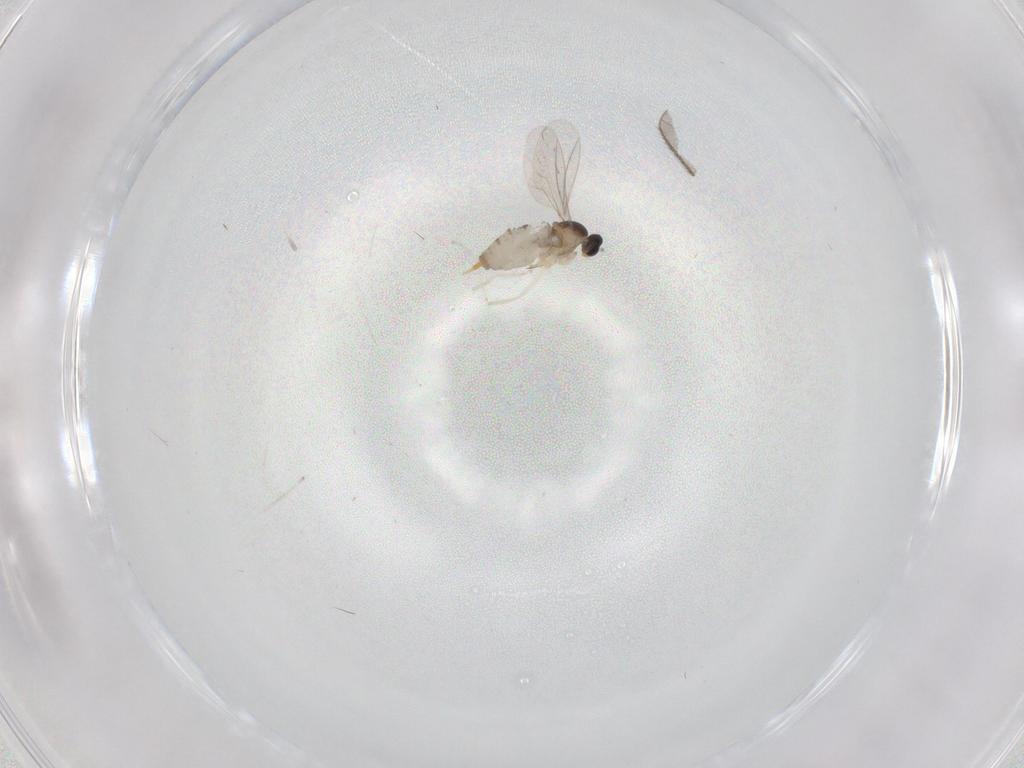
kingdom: Animalia
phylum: Arthropoda
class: Insecta
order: Diptera
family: Cecidomyiidae
